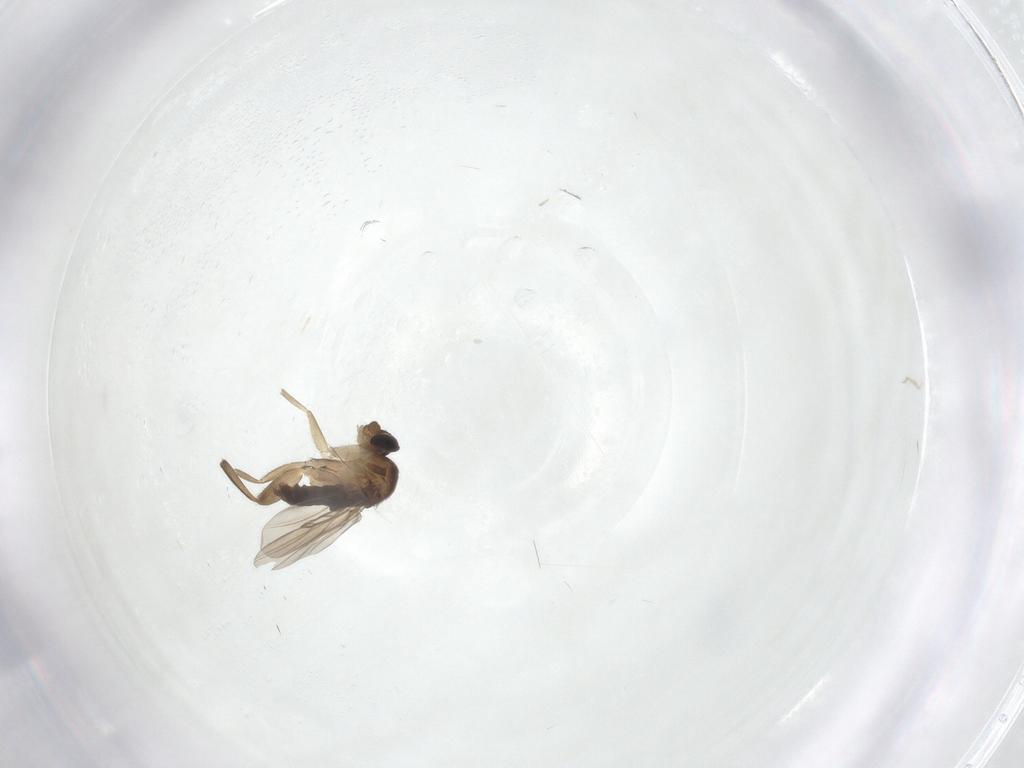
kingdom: Animalia
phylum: Arthropoda
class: Insecta
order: Diptera
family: Phoridae
